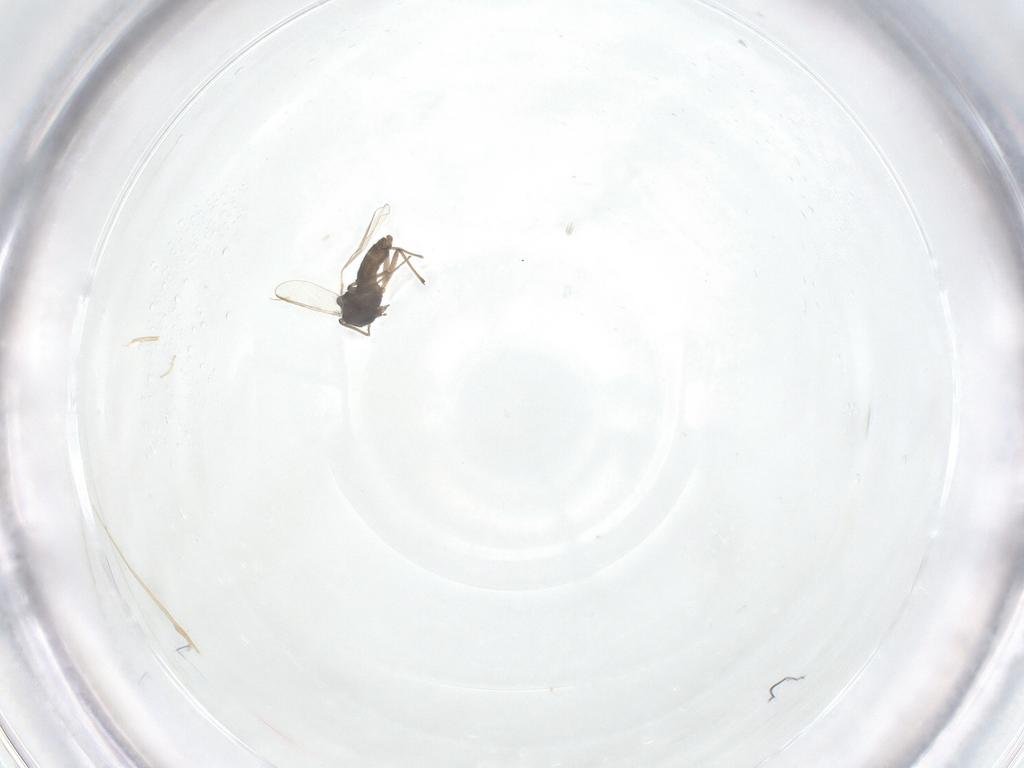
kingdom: Animalia
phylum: Arthropoda
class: Insecta
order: Diptera
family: Chironomidae
